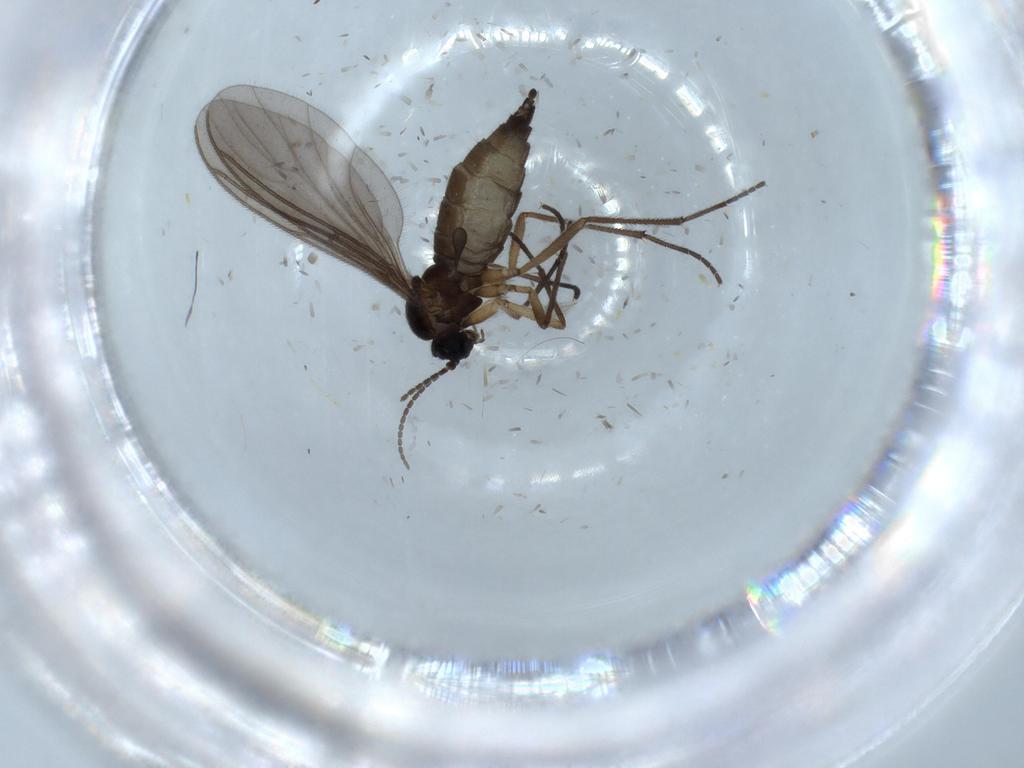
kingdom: Animalia
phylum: Arthropoda
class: Insecta
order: Diptera
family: Sciaridae
